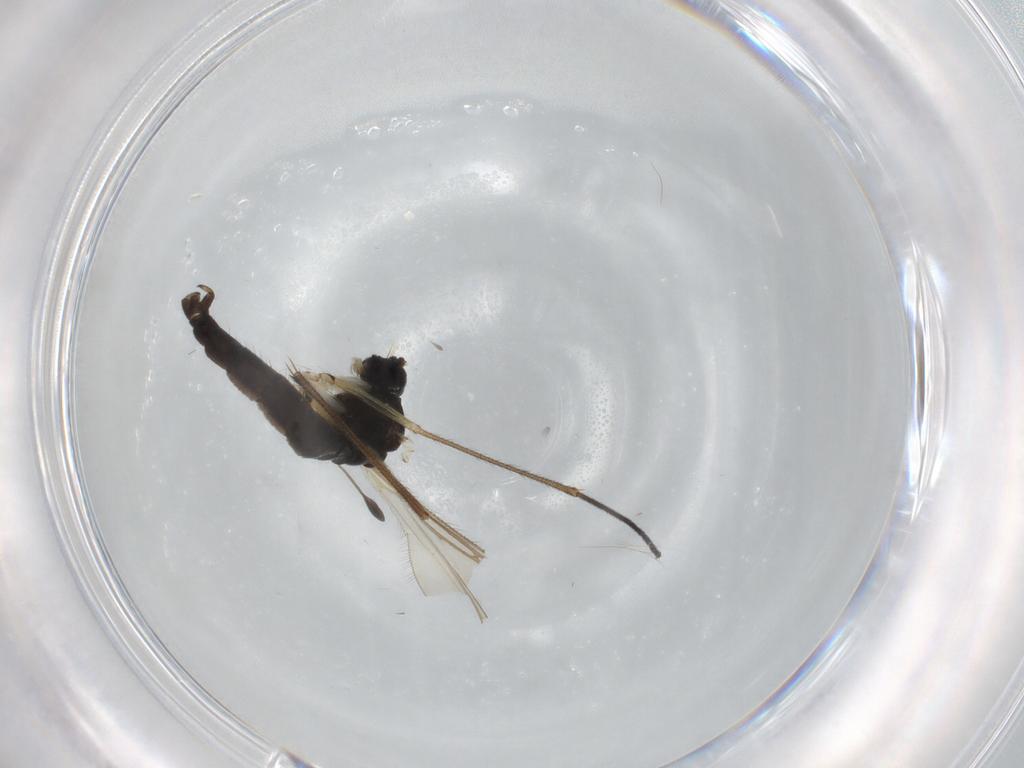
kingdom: Animalia
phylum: Arthropoda
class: Insecta
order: Diptera
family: Sciaridae
